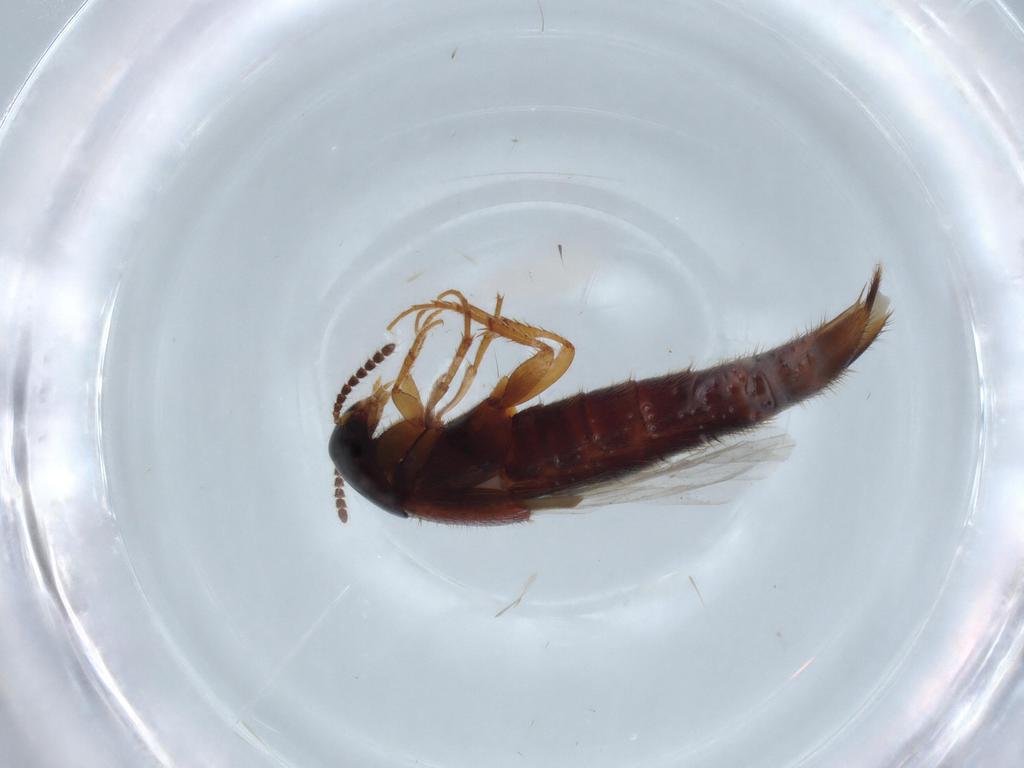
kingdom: Animalia
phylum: Arthropoda
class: Insecta
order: Coleoptera
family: Staphylinidae
